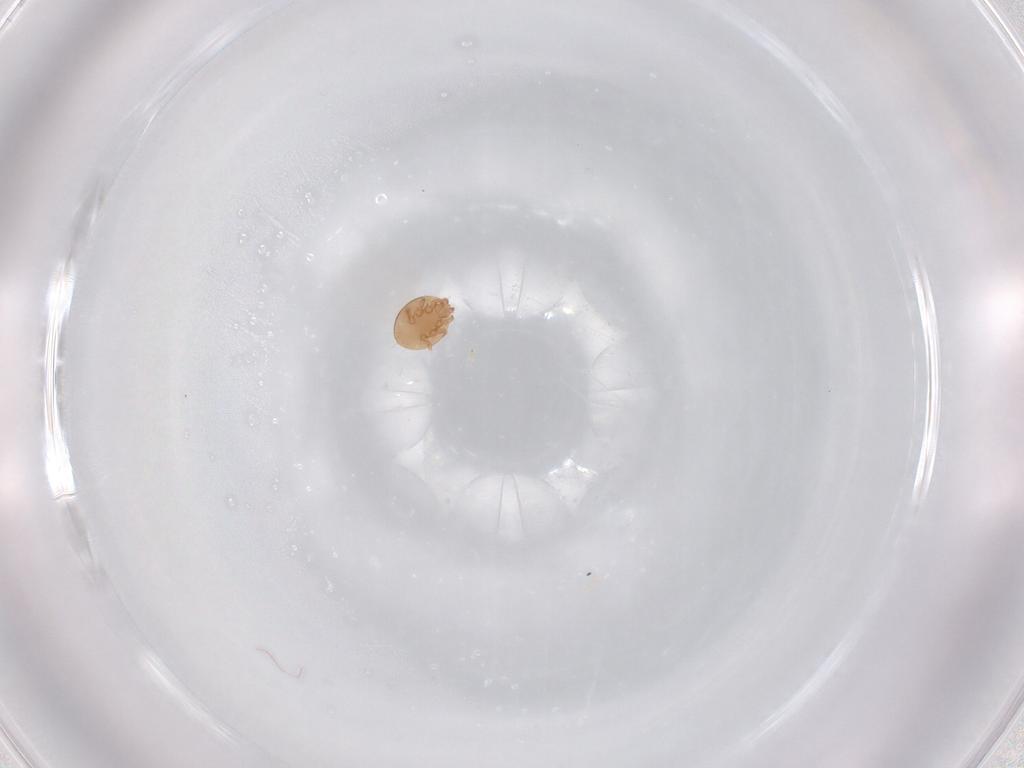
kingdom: Animalia
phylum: Arthropoda
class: Arachnida
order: Mesostigmata
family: Trematuridae
